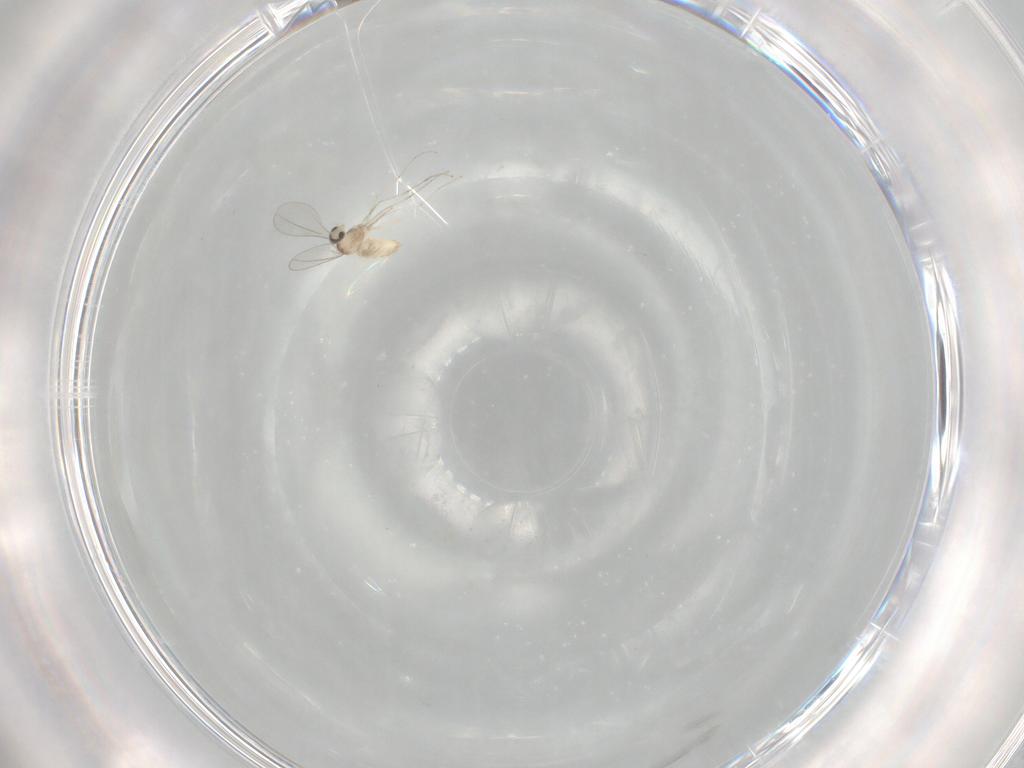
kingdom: Animalia
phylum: Arthropoda
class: Insecta
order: Diptera
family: Cecidomyiidae
